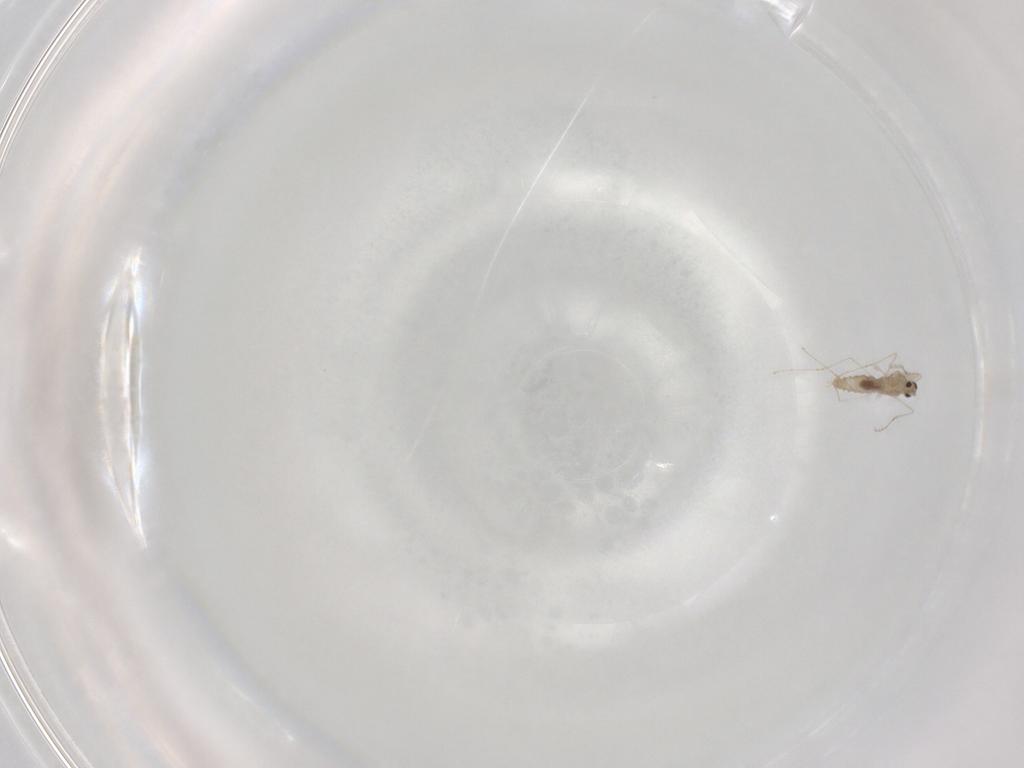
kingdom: Animalia
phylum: Arthropoda
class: Insecta
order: Diptera
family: Cecidomyiidae
